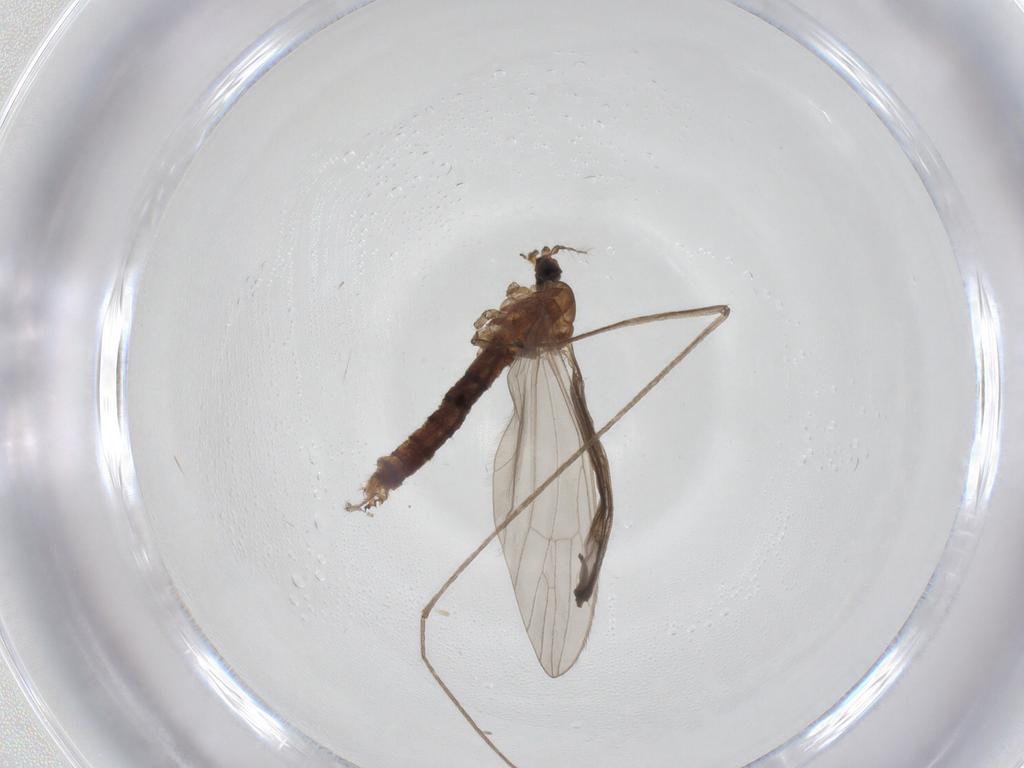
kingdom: Animalia
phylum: Arthropoda
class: Insecta
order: Diptera
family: Limoniidae
